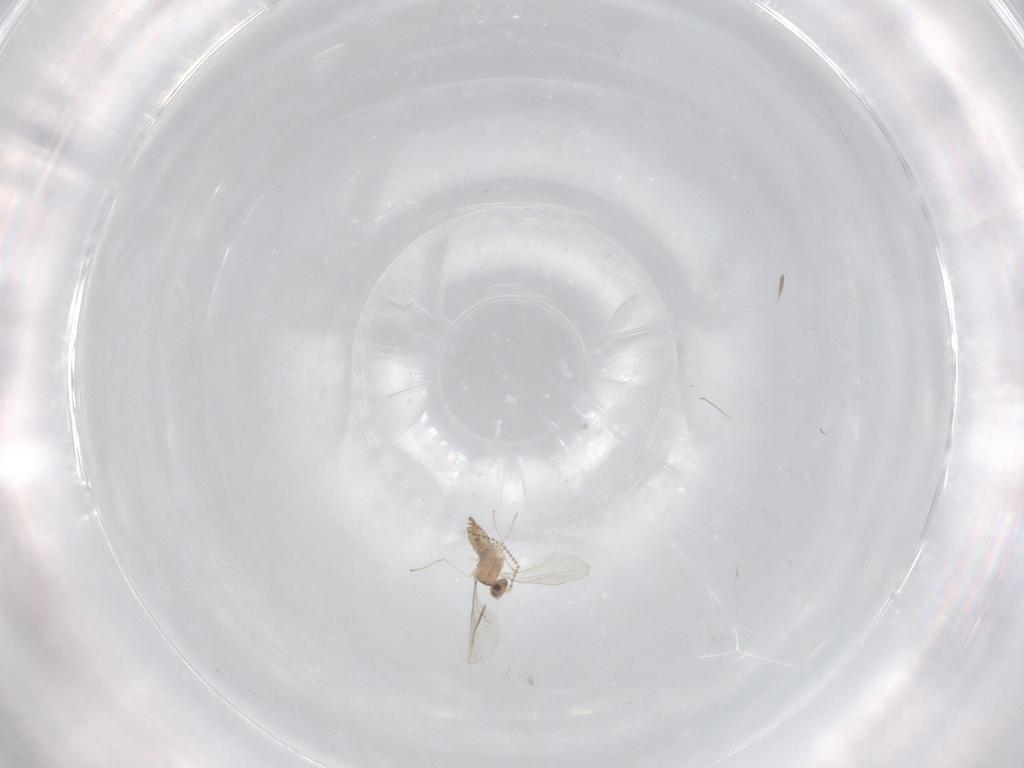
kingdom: Animalia
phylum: Arthropoda
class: Insecta
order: Diptera
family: Cecidomyiidae
